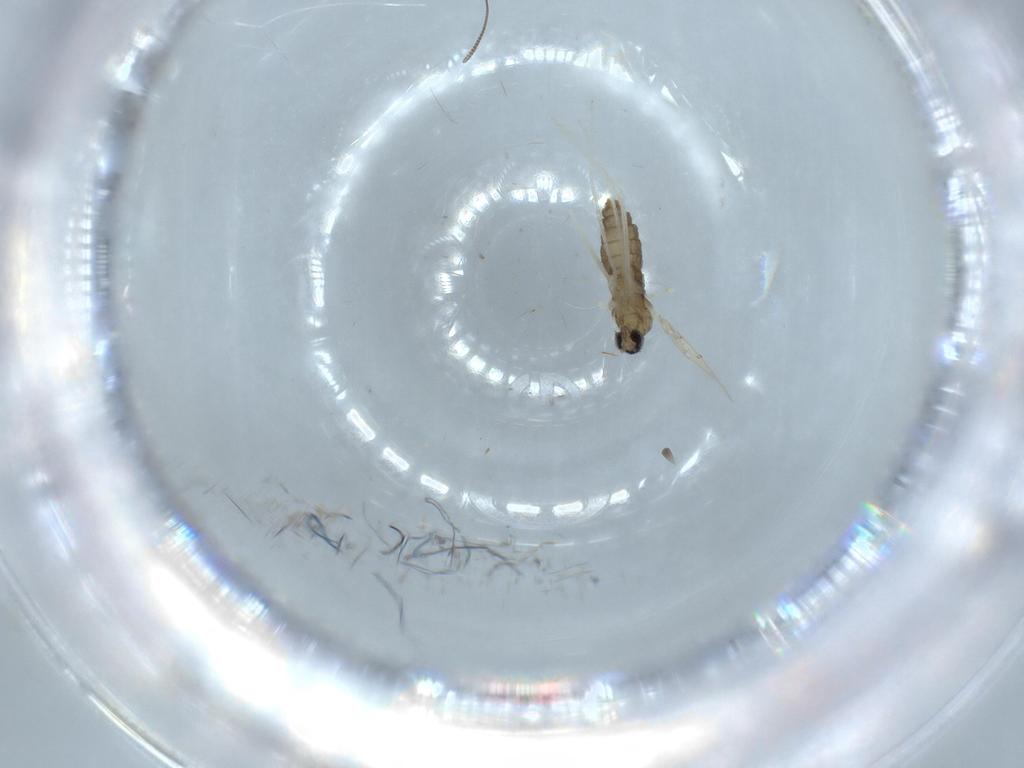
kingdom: Animalia
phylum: Arthropoda
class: Insecta
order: Diptera
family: Cecidomyiidae
